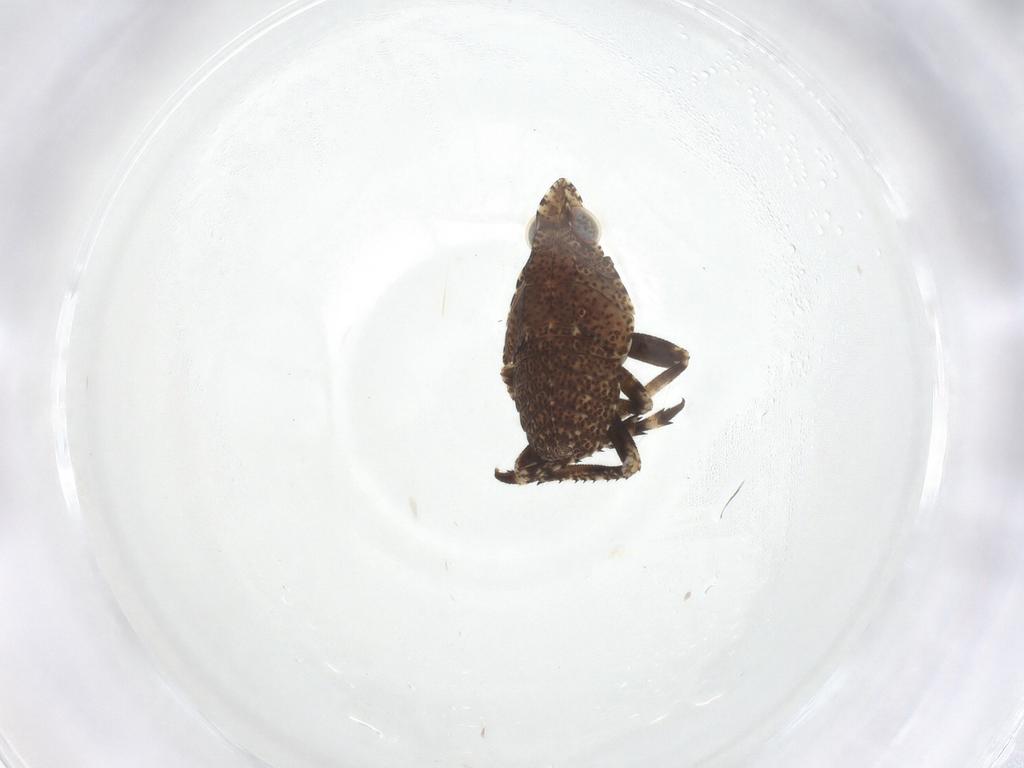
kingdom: Animalia
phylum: Arthropoda
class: Insecta
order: Hemiptera
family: Dictyopharidae
